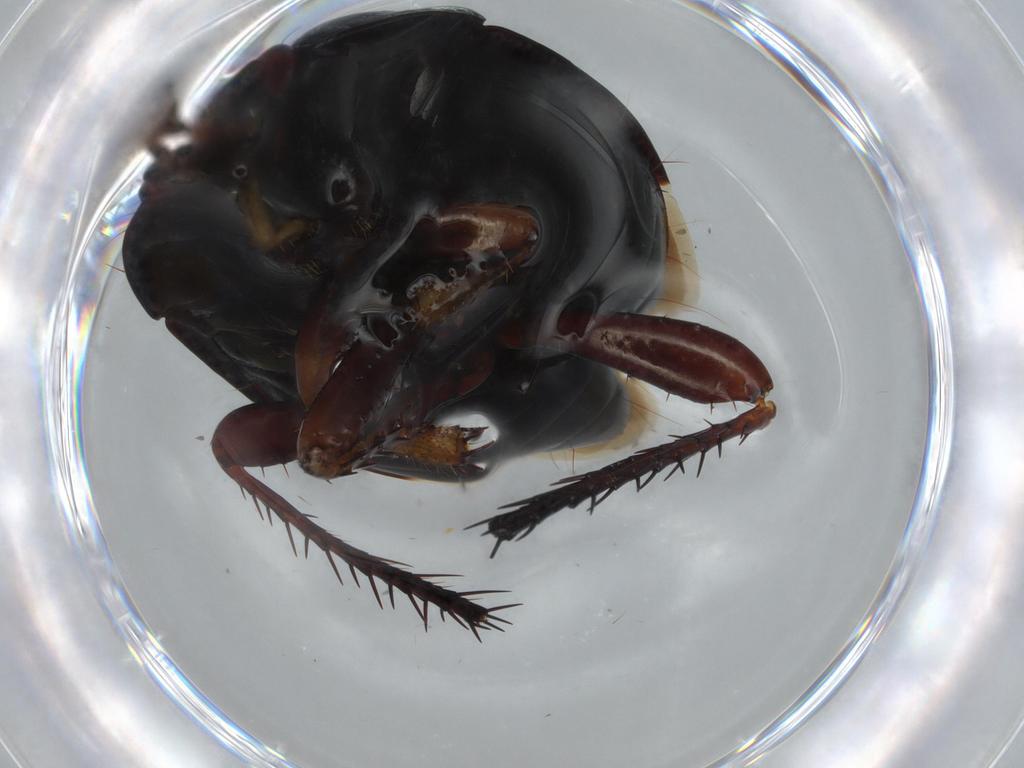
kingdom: Animalia
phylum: Arthropoda
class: Insecta
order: Hemiptera
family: Cydnidae
